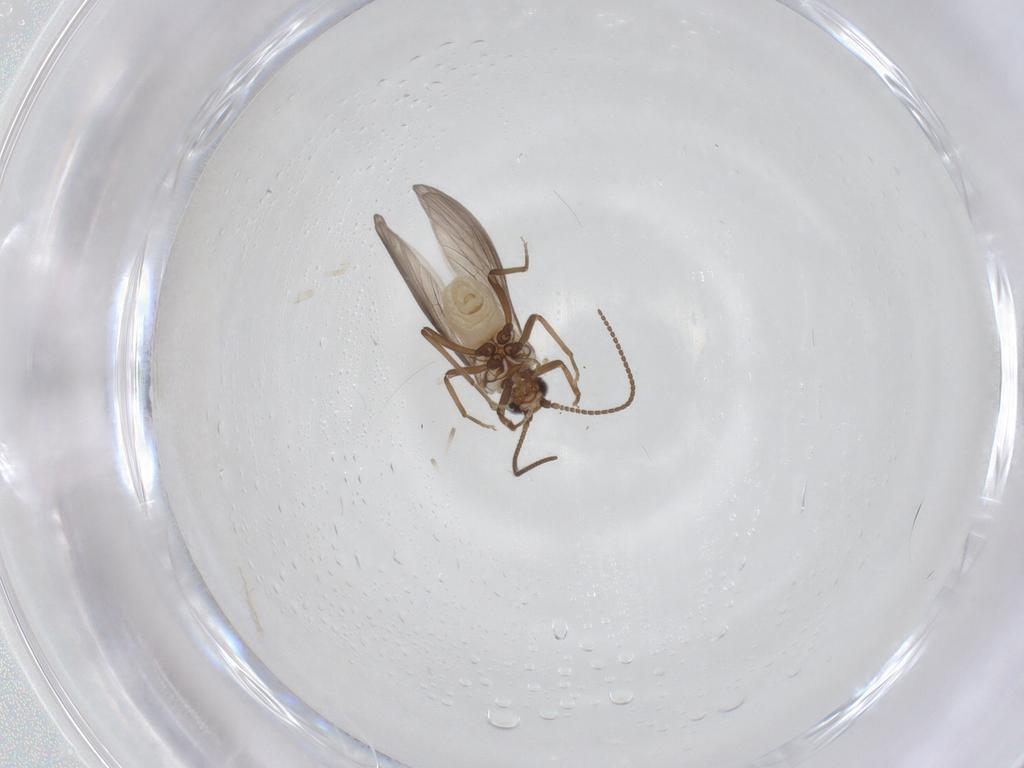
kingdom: Animalia
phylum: Arthropoda
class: Insecta
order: Neuroptera
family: Coniopterygidae
